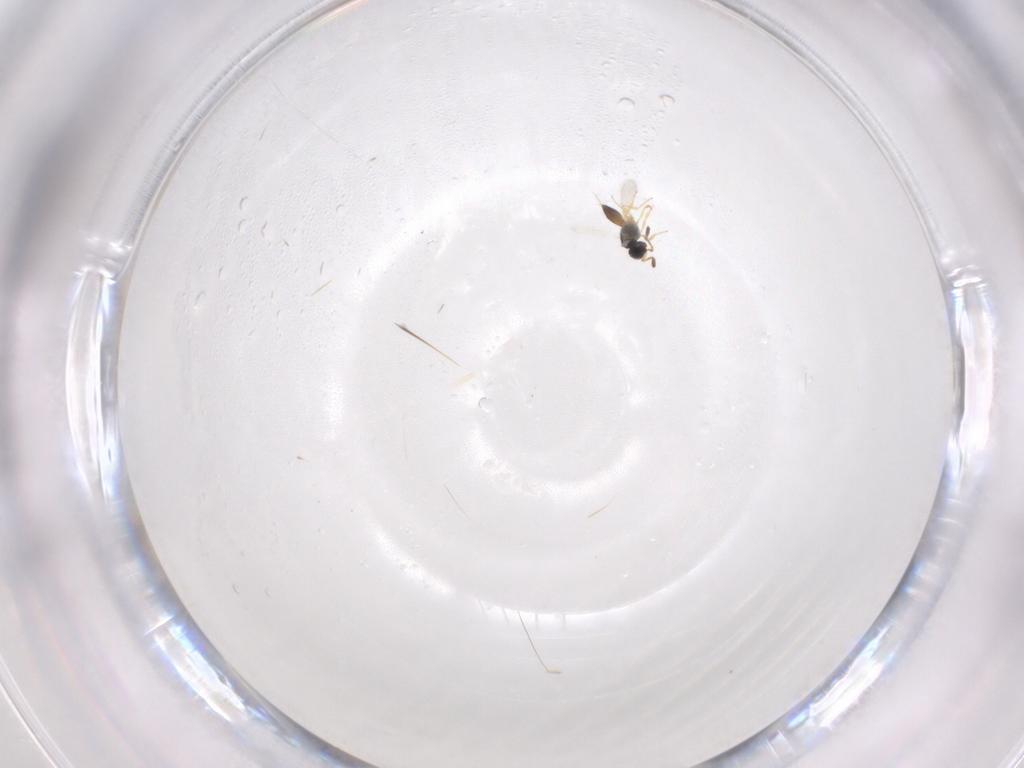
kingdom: Animalia
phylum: Arthropoda
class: Insecta
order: Hymenoptera
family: Scelionidae
